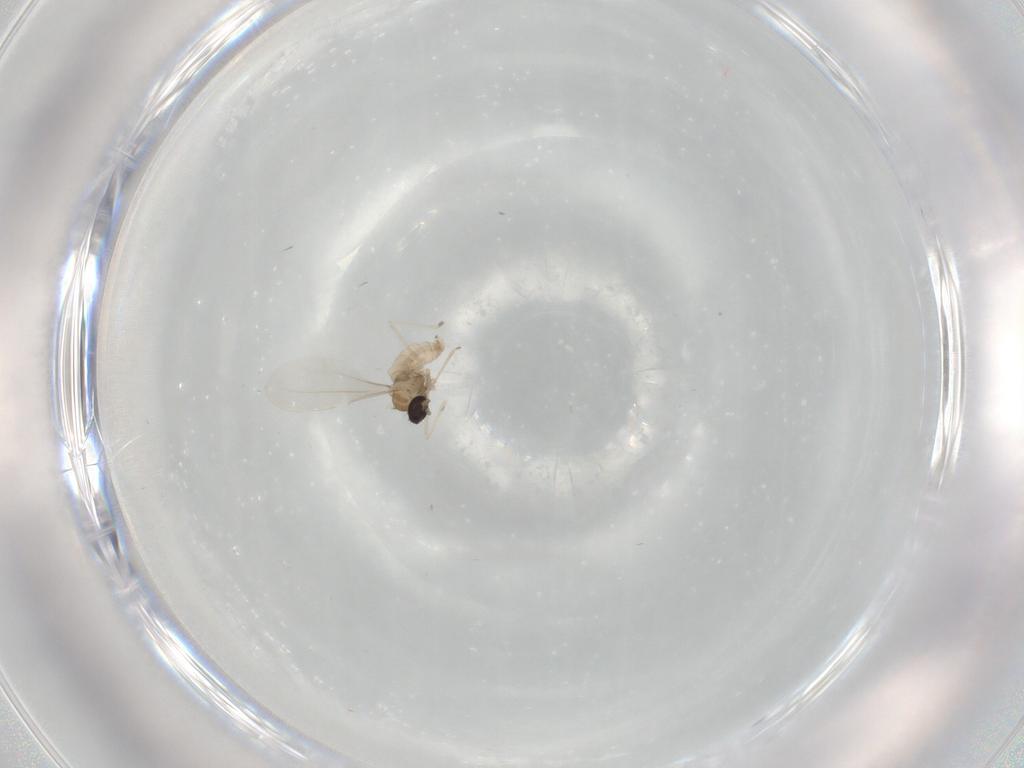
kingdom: Animalia
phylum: Arthropoda
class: Insecta
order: Diptera
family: Cecidomyiidae
